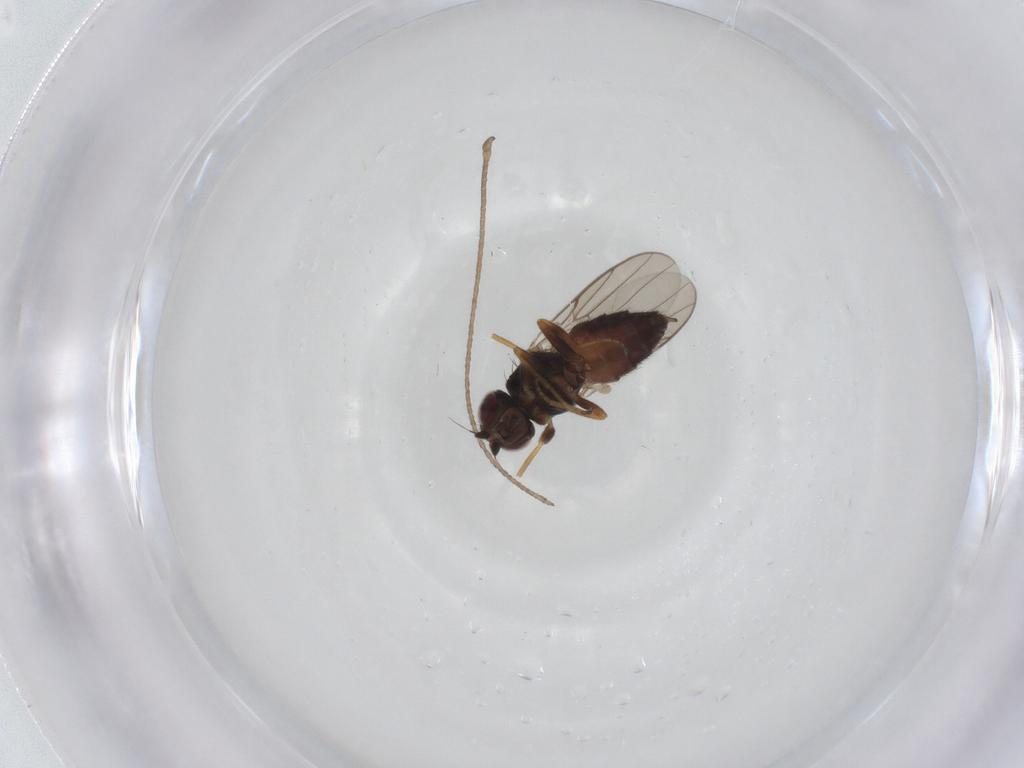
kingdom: Animalia
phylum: Arthropoda
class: Insecta
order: Diptera
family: Chloropidae
